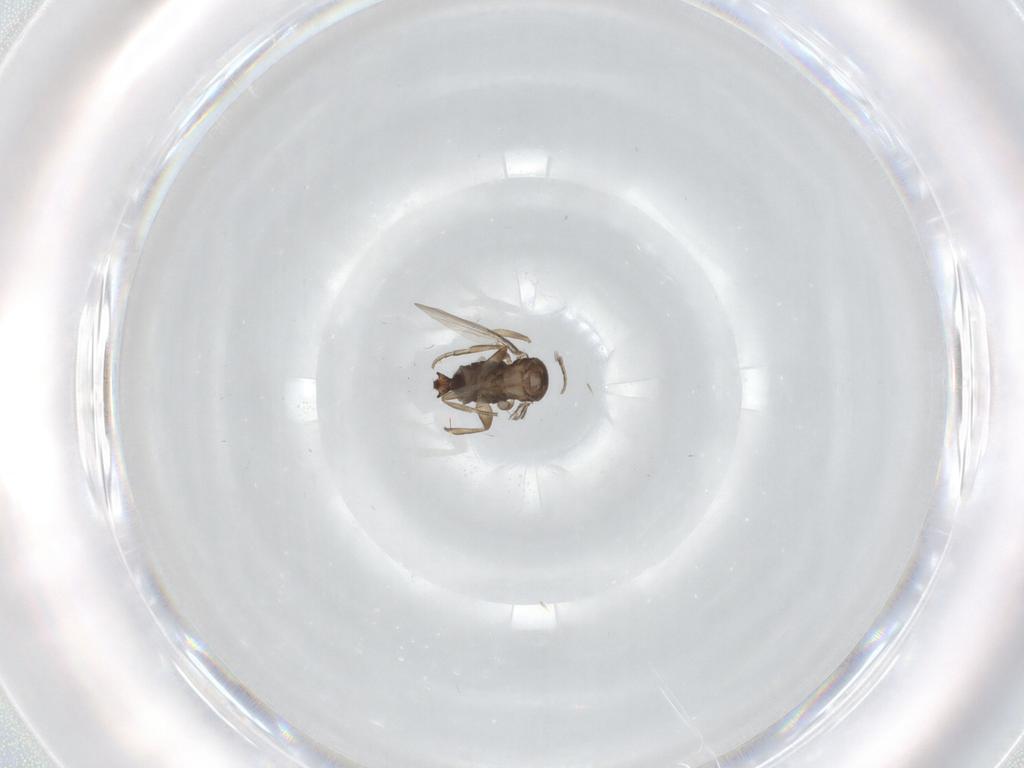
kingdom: Animalia
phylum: Arthropoda
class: Insecta
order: Diptera
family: Phoridae
